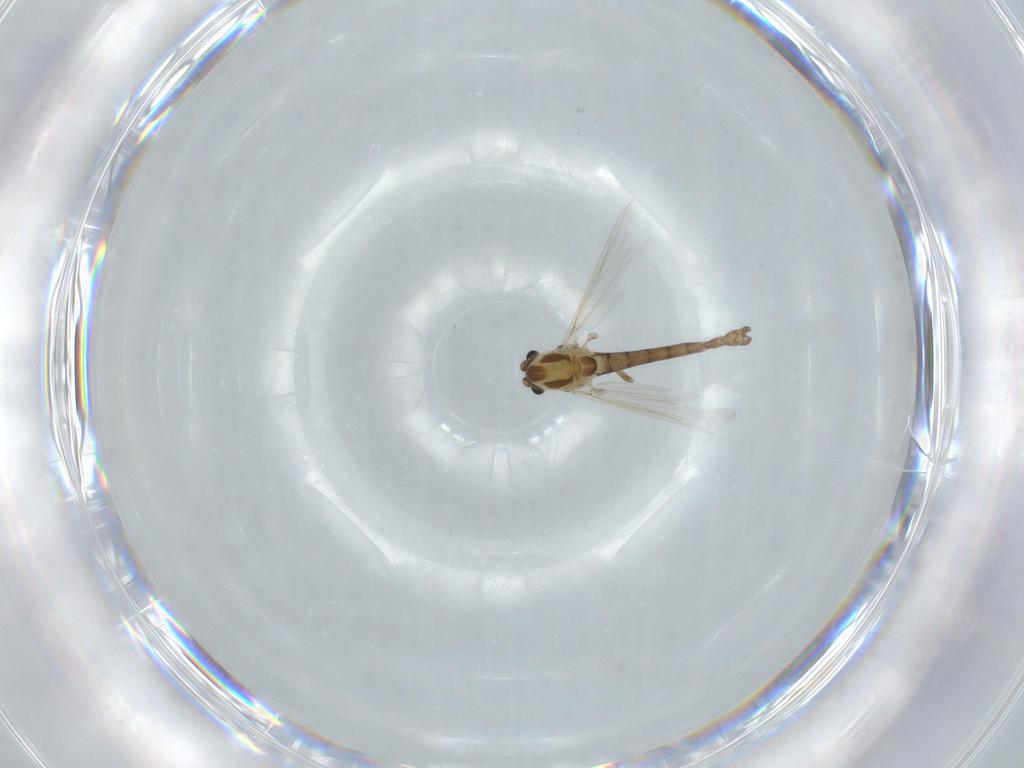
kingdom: Animalia
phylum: Arthropoda
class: Insecta
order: Diptera
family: Chironomidae
